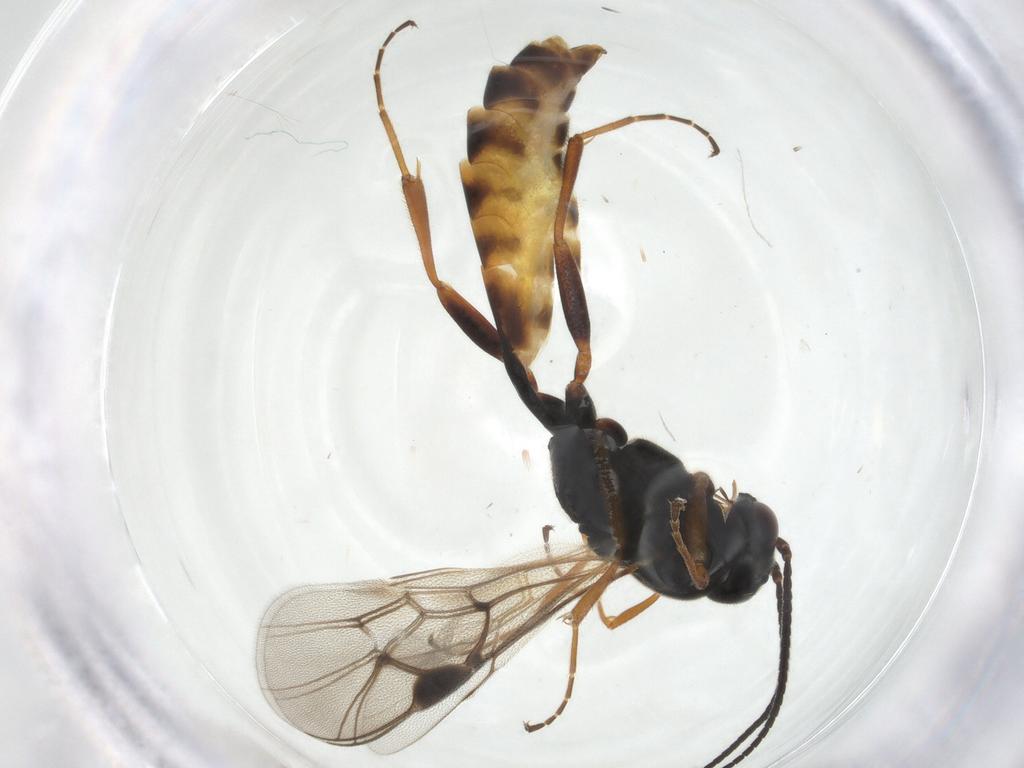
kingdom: Animalia
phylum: Arthropoda
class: Insecta
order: Hymenoptera
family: Ichneumonidae
